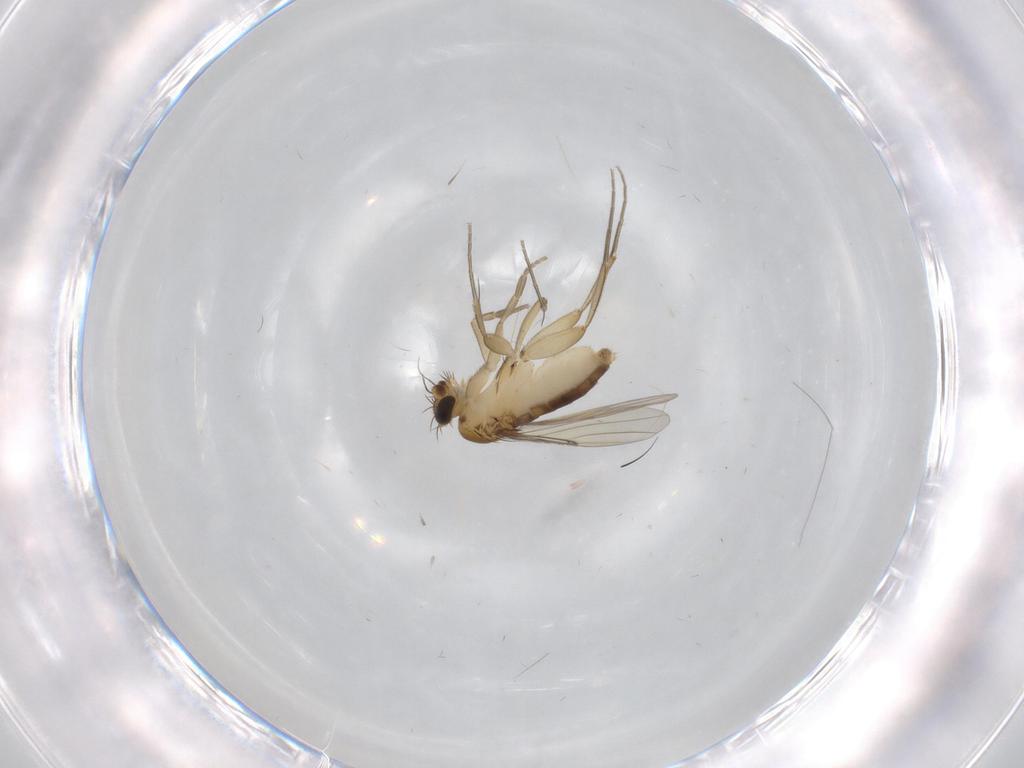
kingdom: Animalia
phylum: Arthropoda
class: Insecta
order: Diptera
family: Phoridae
